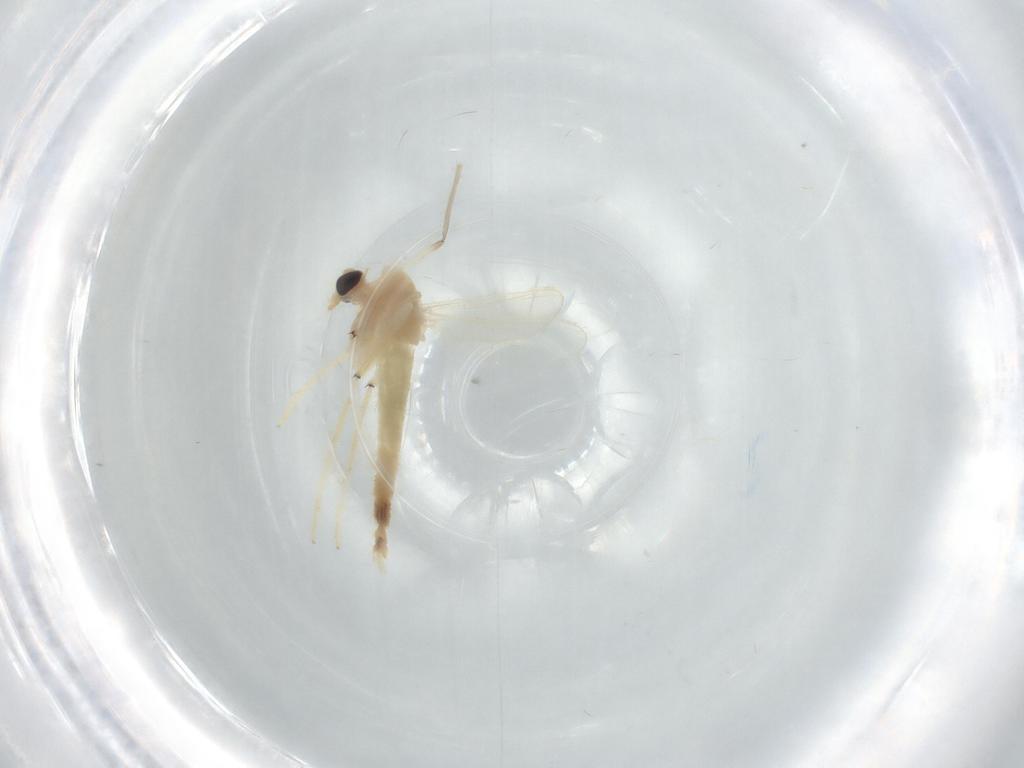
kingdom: Animalia
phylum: Arthropoda
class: Insecta
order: Diptera
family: Chironomidae
